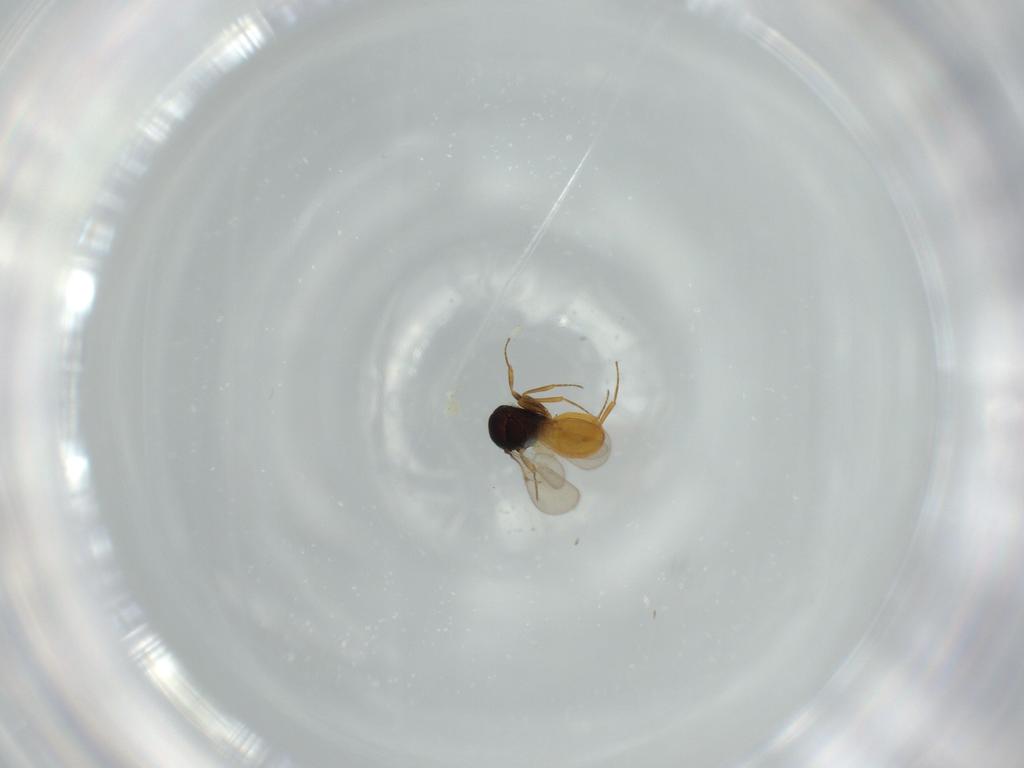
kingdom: Animalia
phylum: Arthropoda
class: Insecta
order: Hymenoptera
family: Scelionidae
